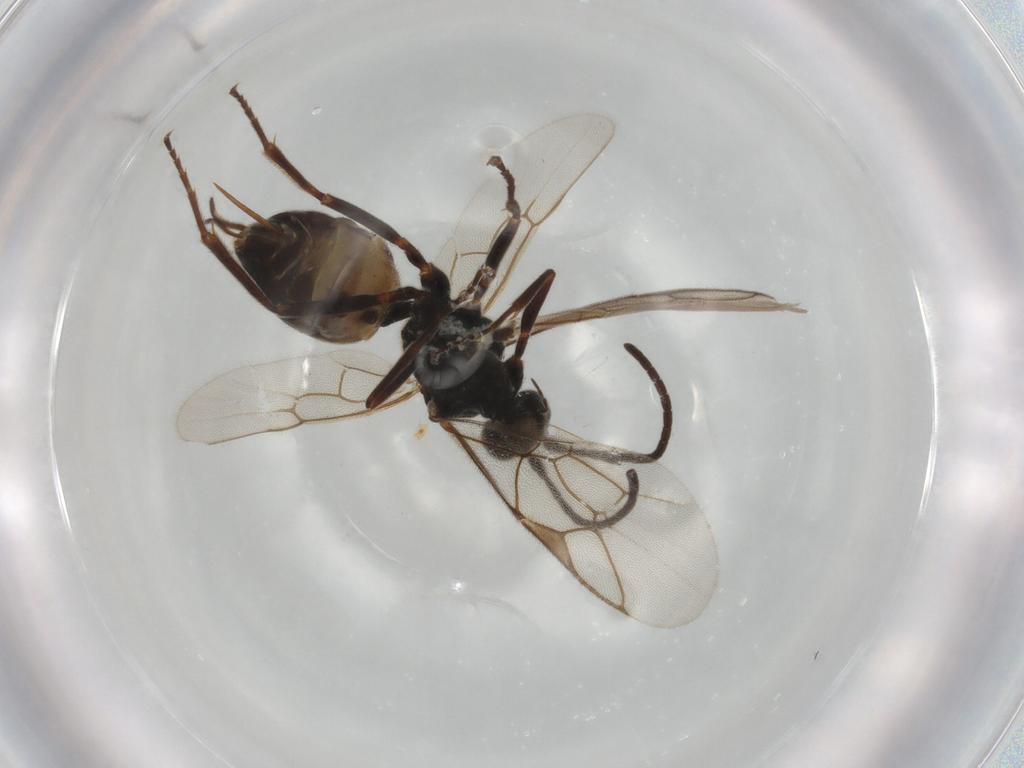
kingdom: Animalia
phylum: Arthropoda
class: Insecta
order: Hymenoptera
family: Ichneumonidae
